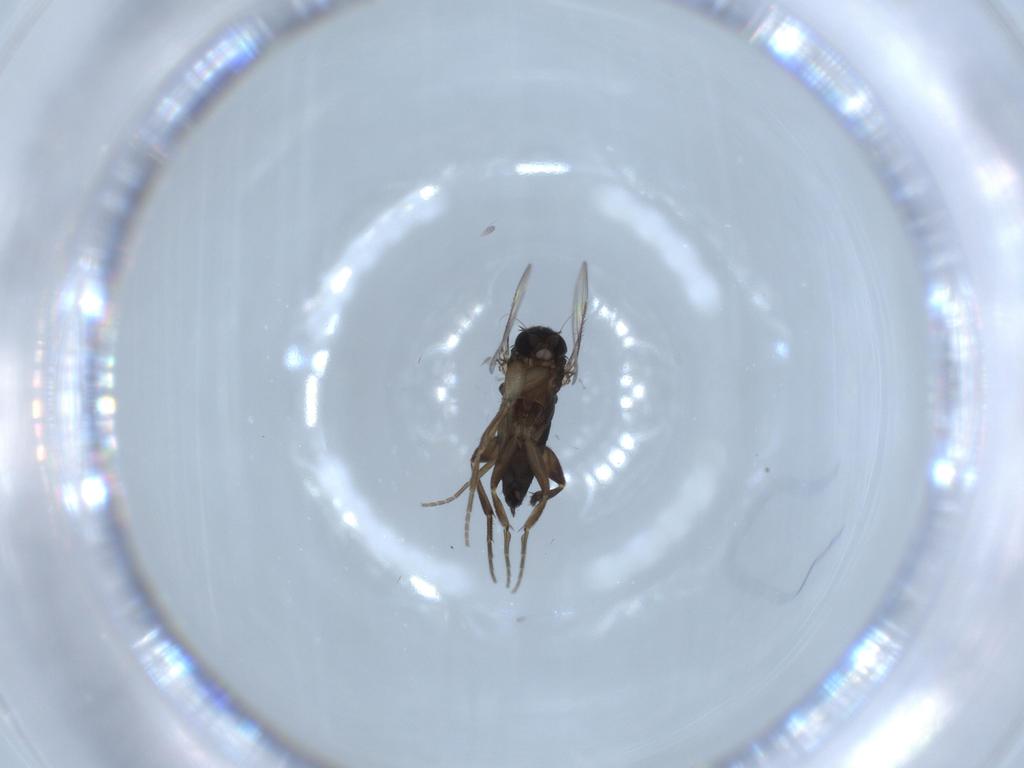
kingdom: Animalia
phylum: Arthropoda
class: Insecta
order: Diptera
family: Phoridae
